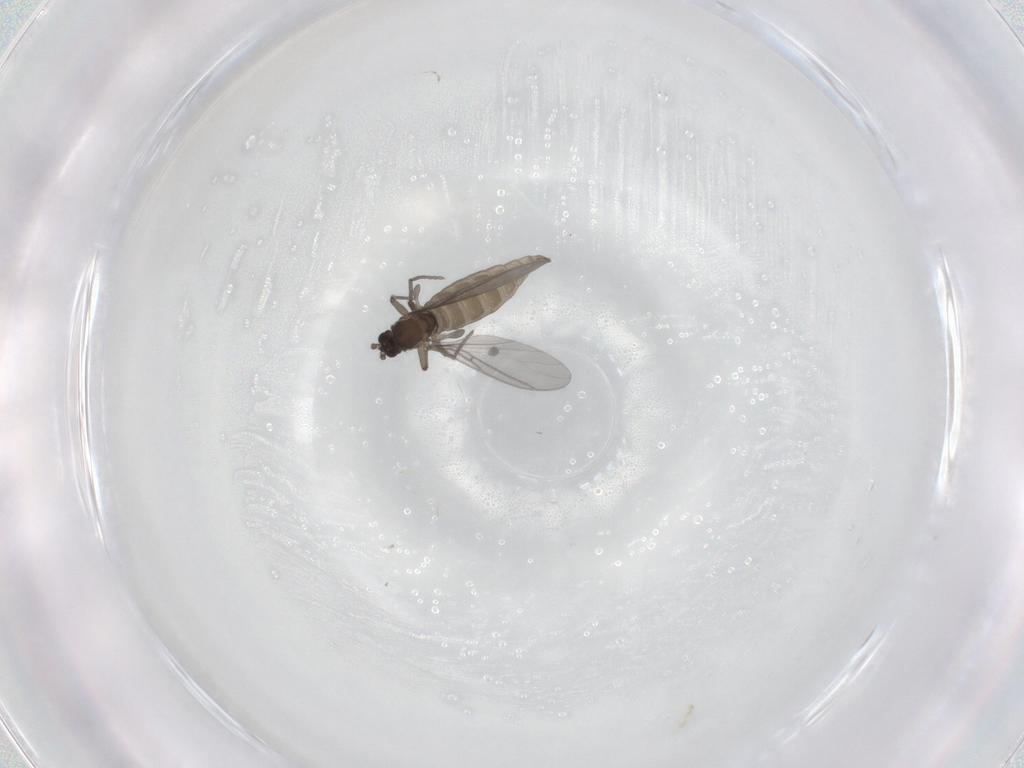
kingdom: Animalia
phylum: Arthropoda
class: Insecta
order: Diptera
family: Sciaridae
